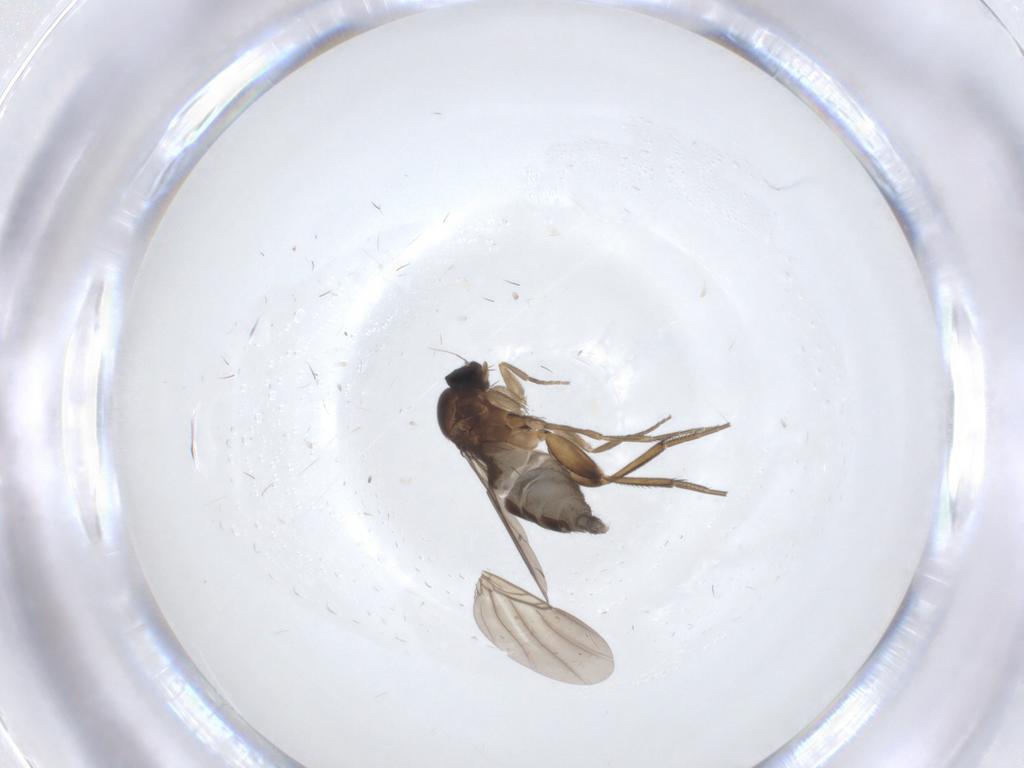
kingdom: Animalia
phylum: Arthropoda
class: Insecta
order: Diptera
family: Phoridae
